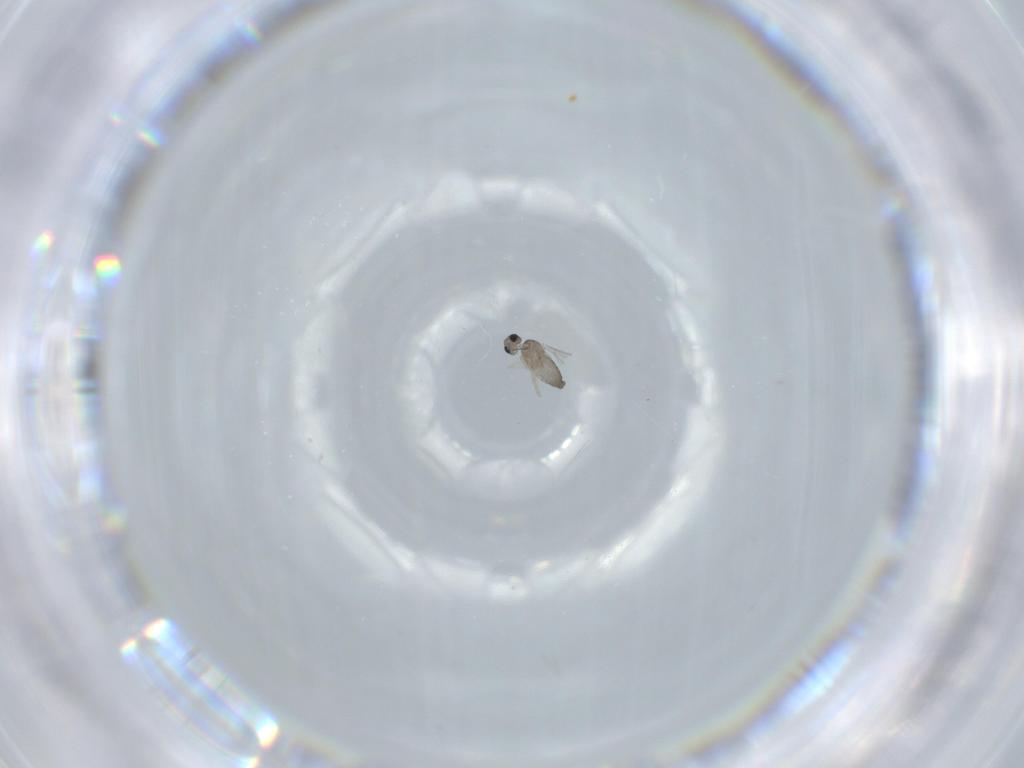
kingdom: Animalia
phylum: Arthropoda
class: Insecta
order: Diptera
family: Cecidomyiidae
